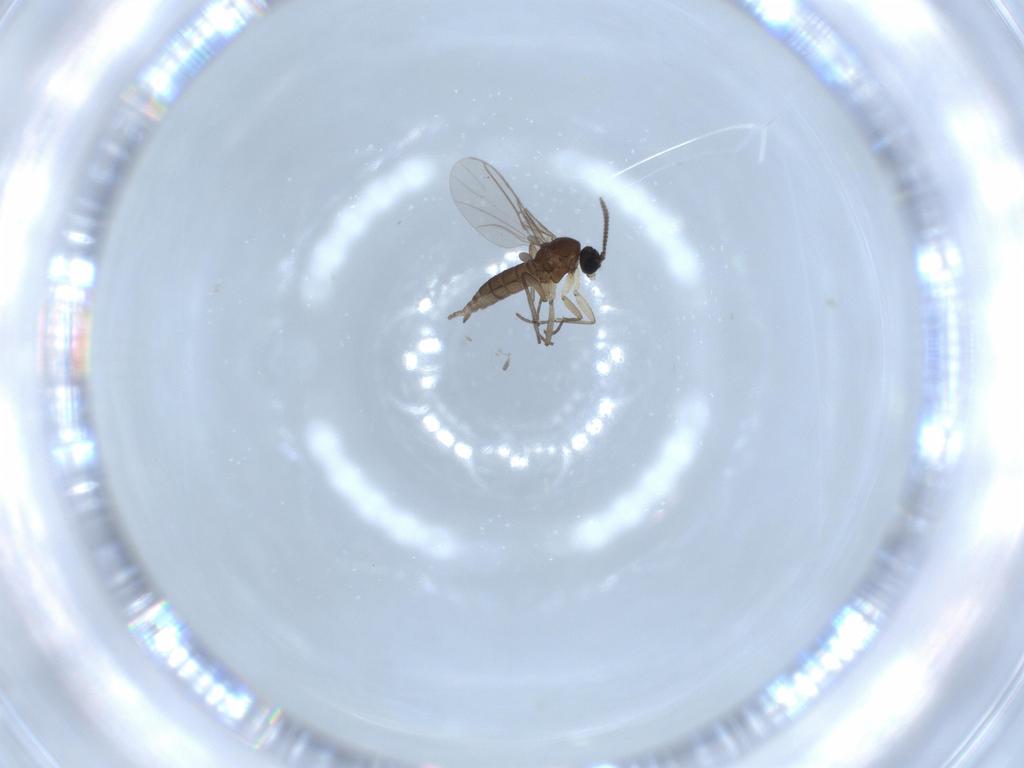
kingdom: Animalia
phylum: Arthropoda
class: Insecta
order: Diptera
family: Sciaridae
